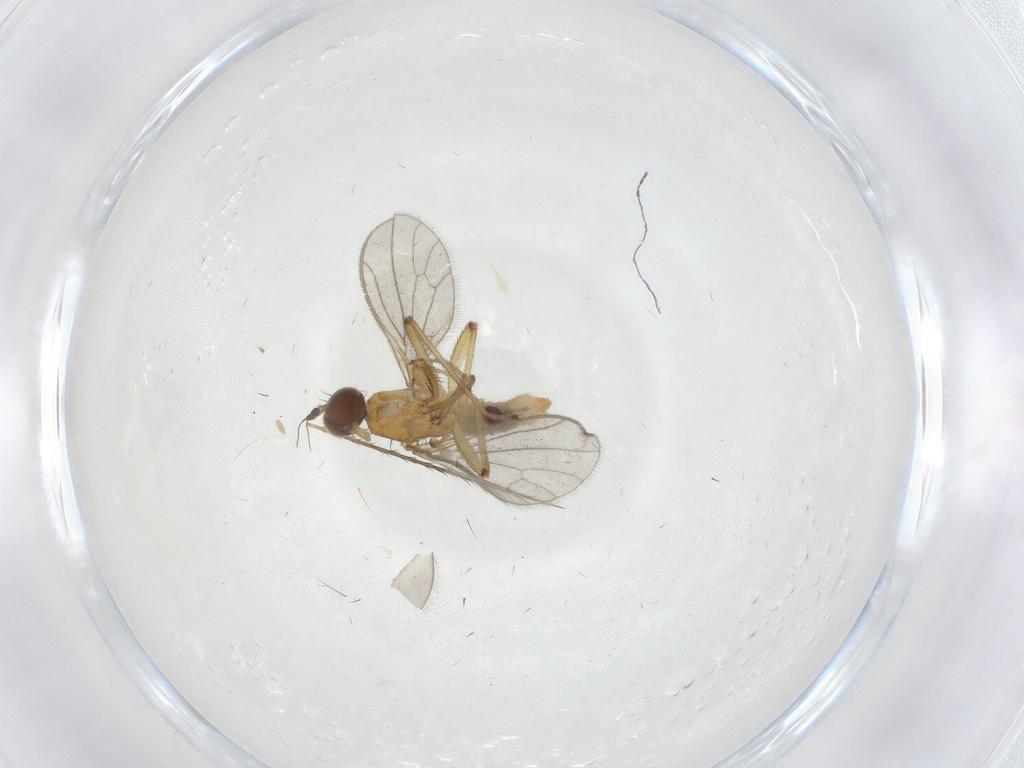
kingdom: Animalia
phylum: Arthropoda
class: Insecta
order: Diptera
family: Empididae
